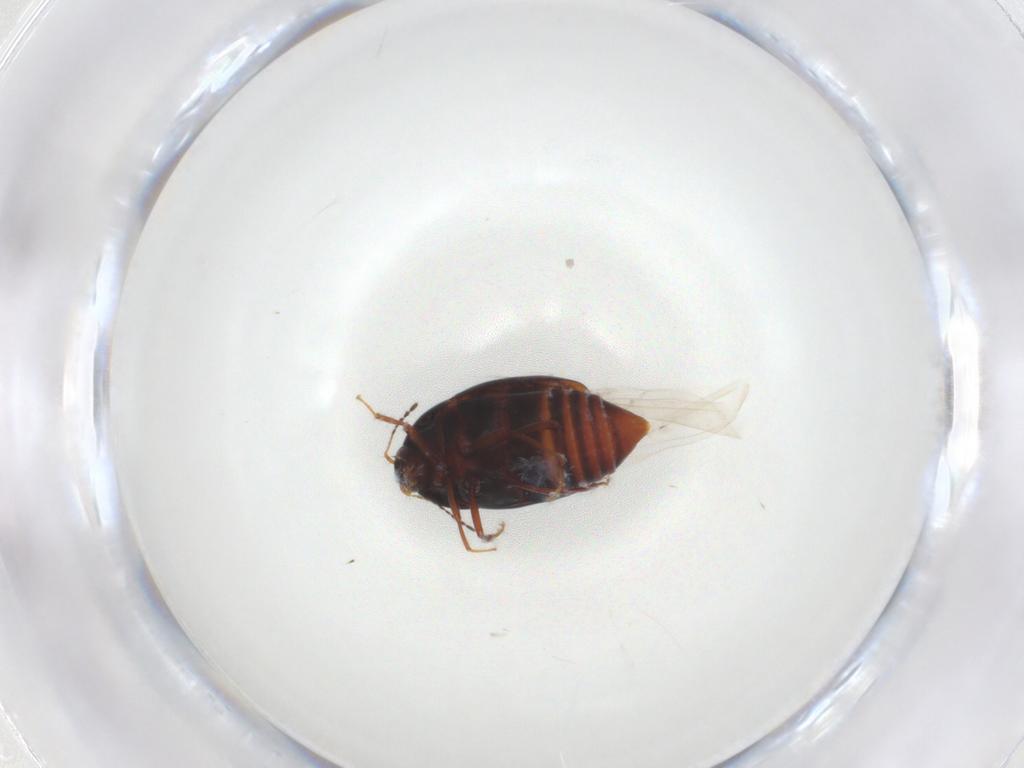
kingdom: Animalia
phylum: Arthropoda
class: Insecta
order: Coleoptera
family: Staphylinidae
